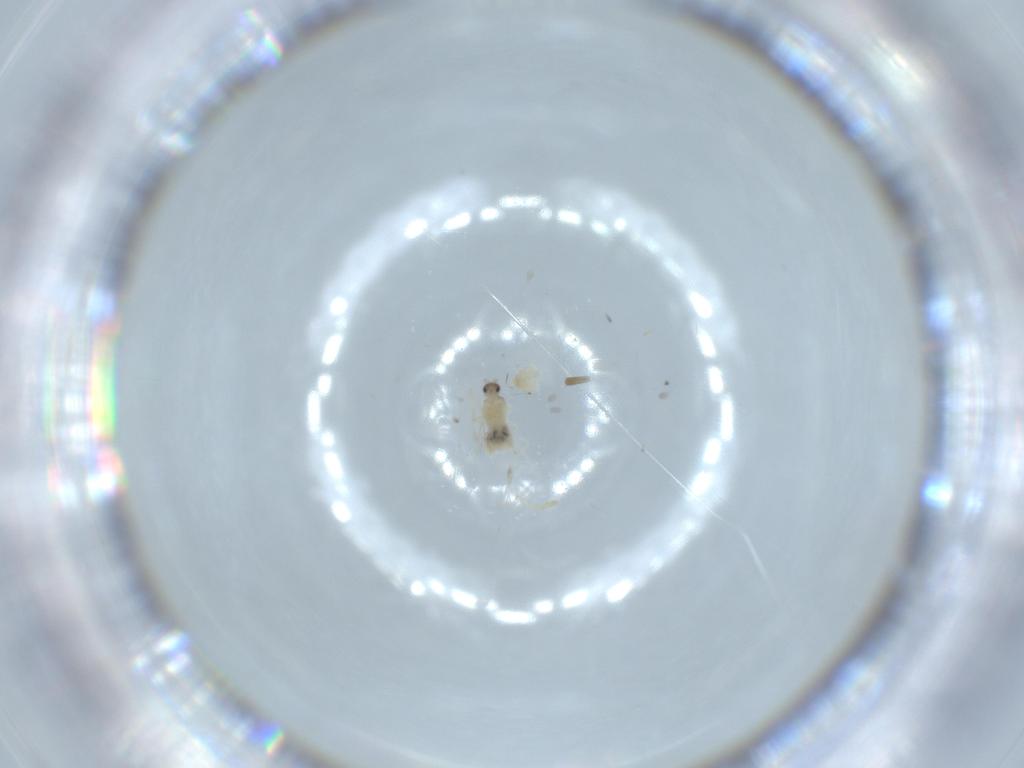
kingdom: Animalia
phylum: Arthropoda
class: Insecta
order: Diptera
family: Cecidomyiidae
